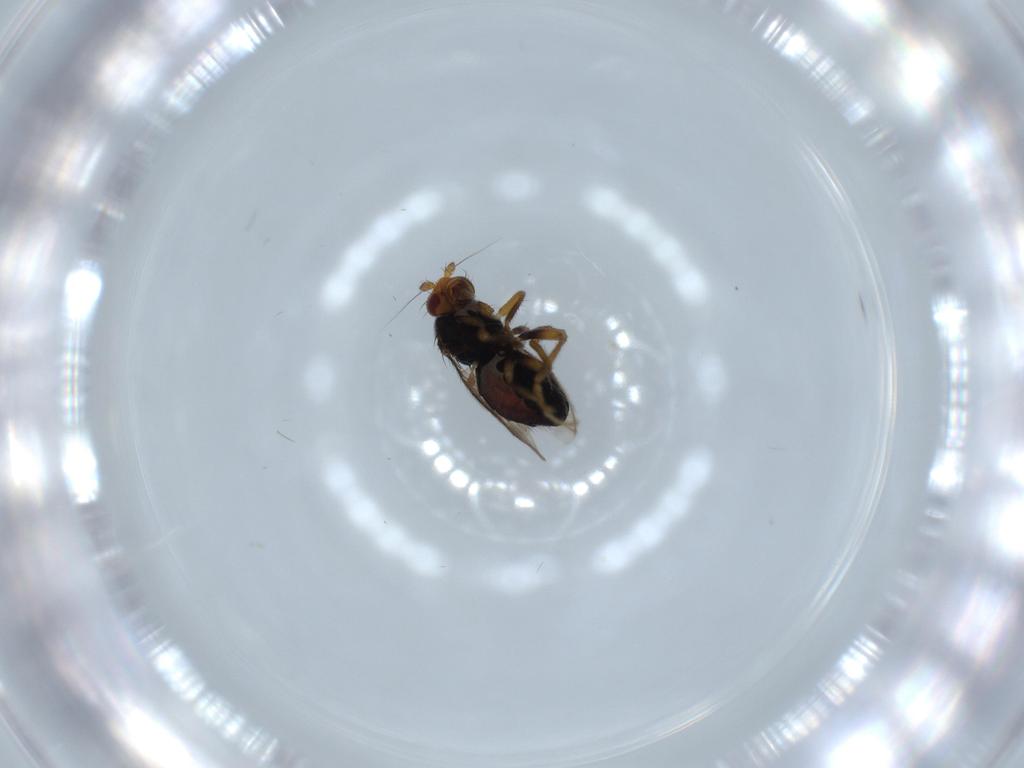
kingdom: Animalia
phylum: Arthropoda
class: Insecta
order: Diptera
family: Sphaeroceridae
